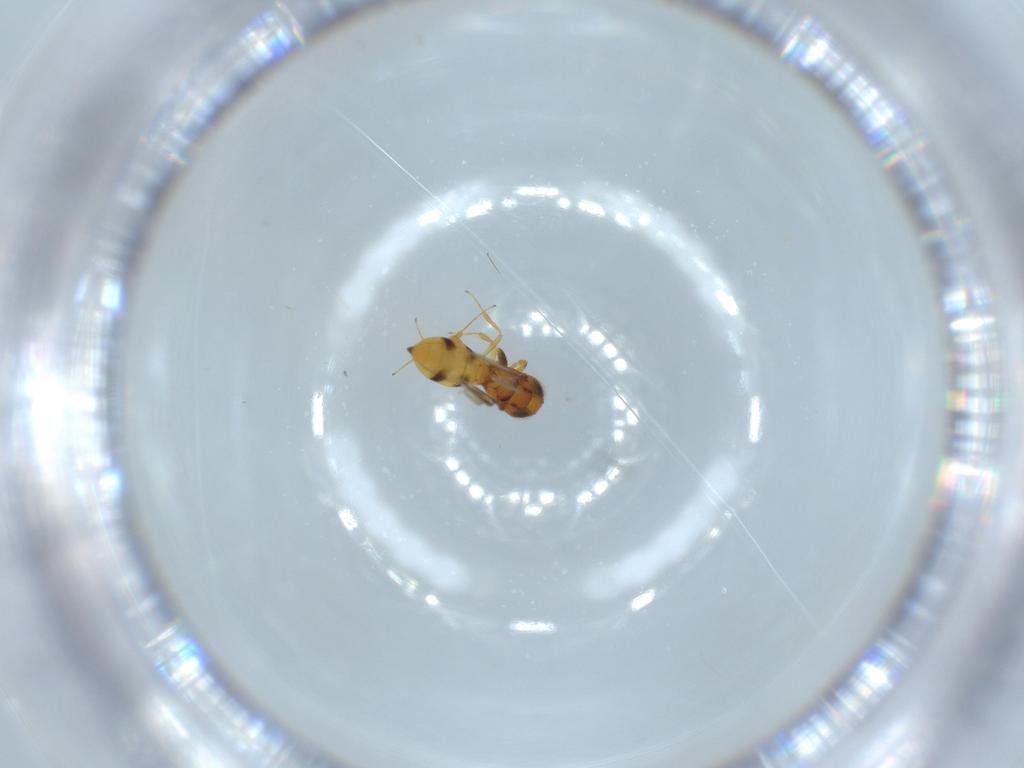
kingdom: Animalia
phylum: Arthropoda
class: Insecta
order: Hymenoptera
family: Scelionidae
